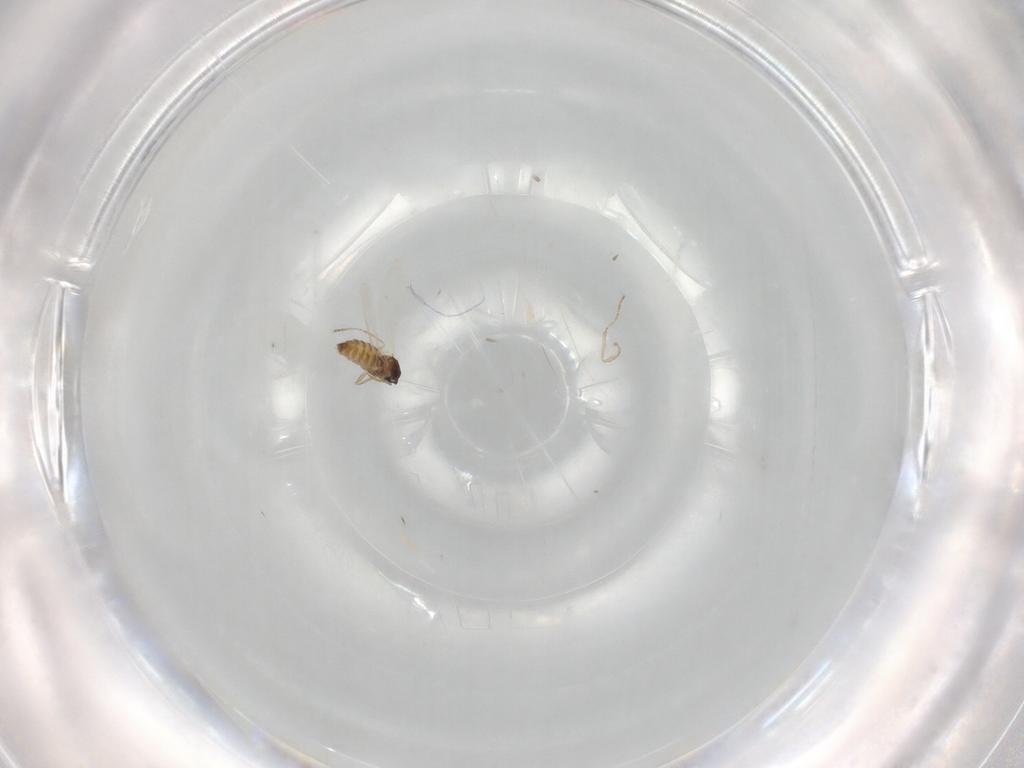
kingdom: Animalia
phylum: Arthropoda
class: Insecta
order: Diptera
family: Cecidomyiidae
